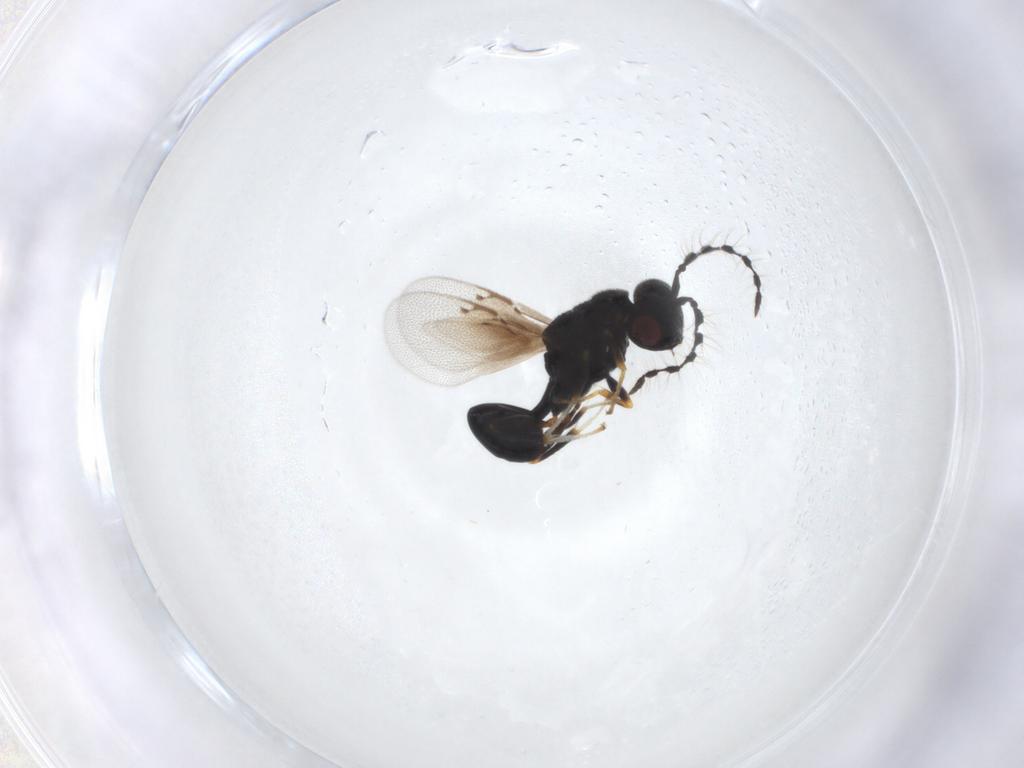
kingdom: Animalia
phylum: Arthropoda
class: Insecta
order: Hymenoptera
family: Eurytomidae
